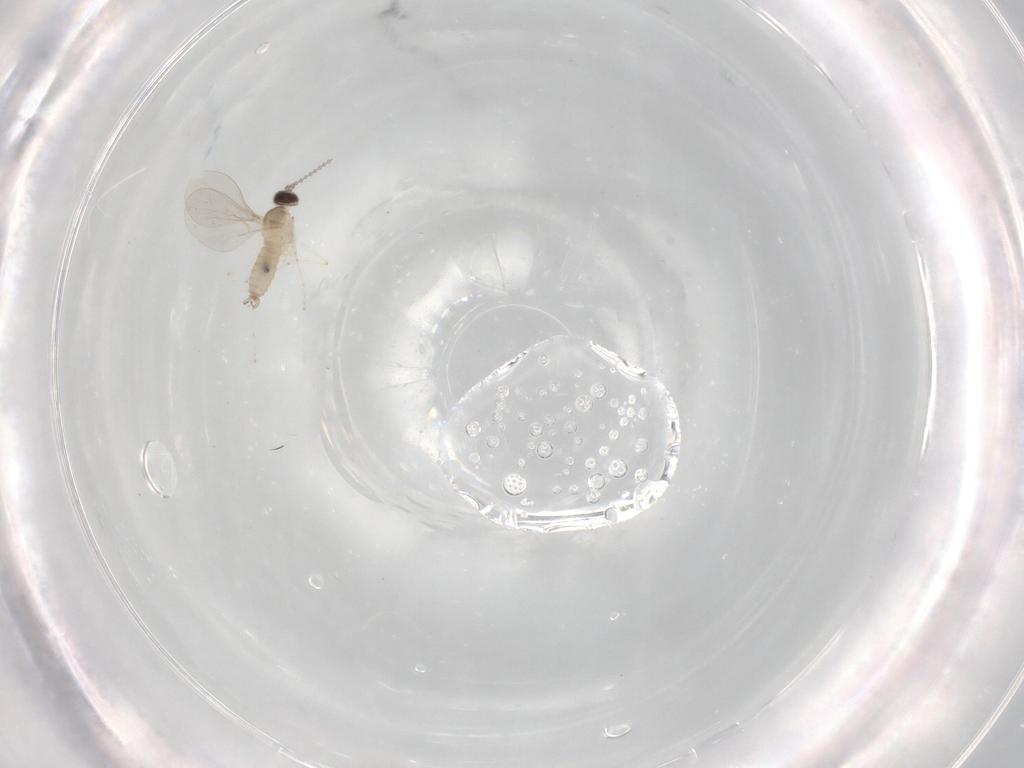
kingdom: Animalia
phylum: Arthropoda
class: Insecta
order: Diptera
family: Cecidomyiidae
